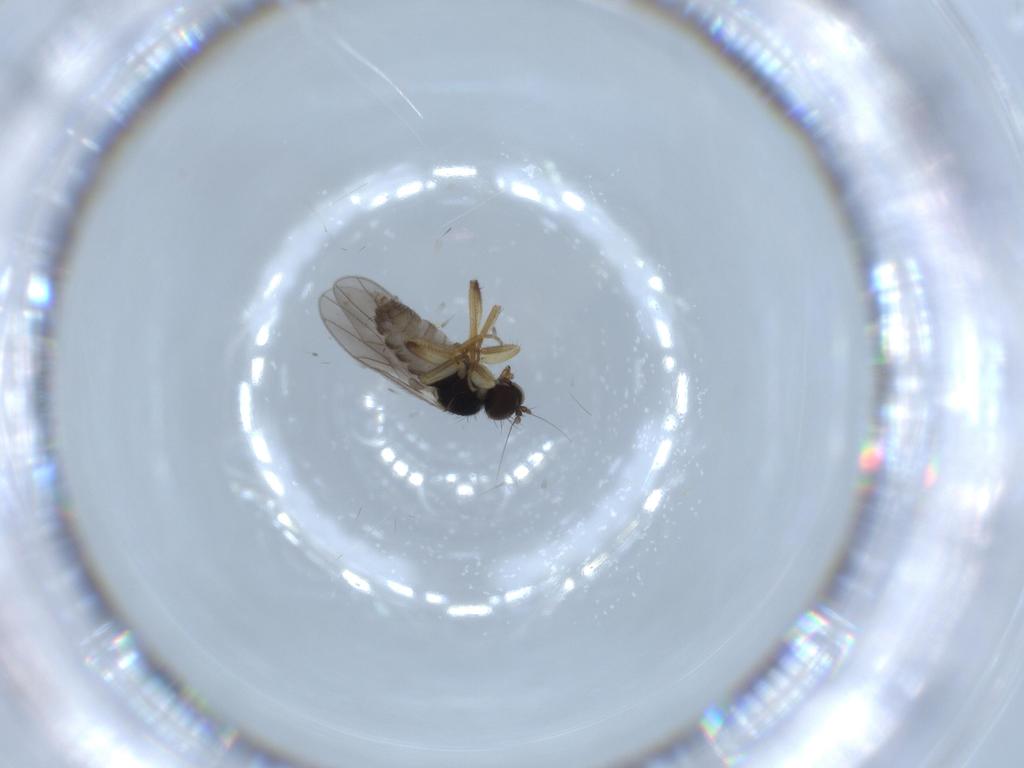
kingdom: Animalia
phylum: Arthropoda
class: Insecta
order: Diptera
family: Hybotidae
